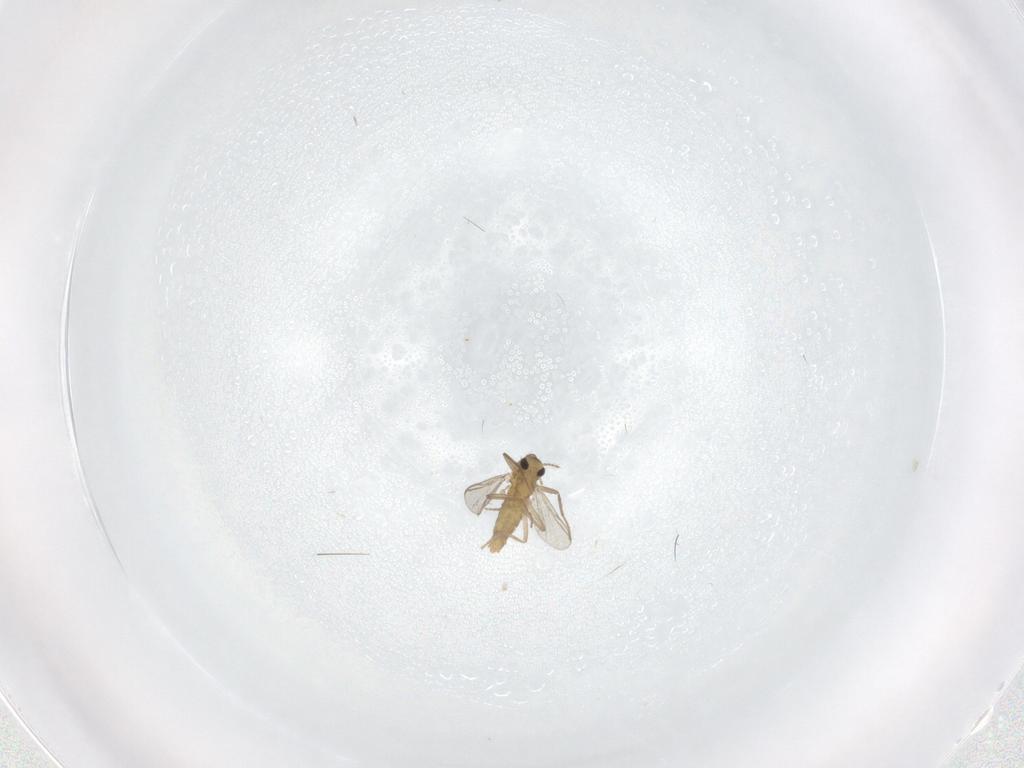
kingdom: Animalia
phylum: Arthropoda
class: Insecta
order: Diptera
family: Chironomidae
